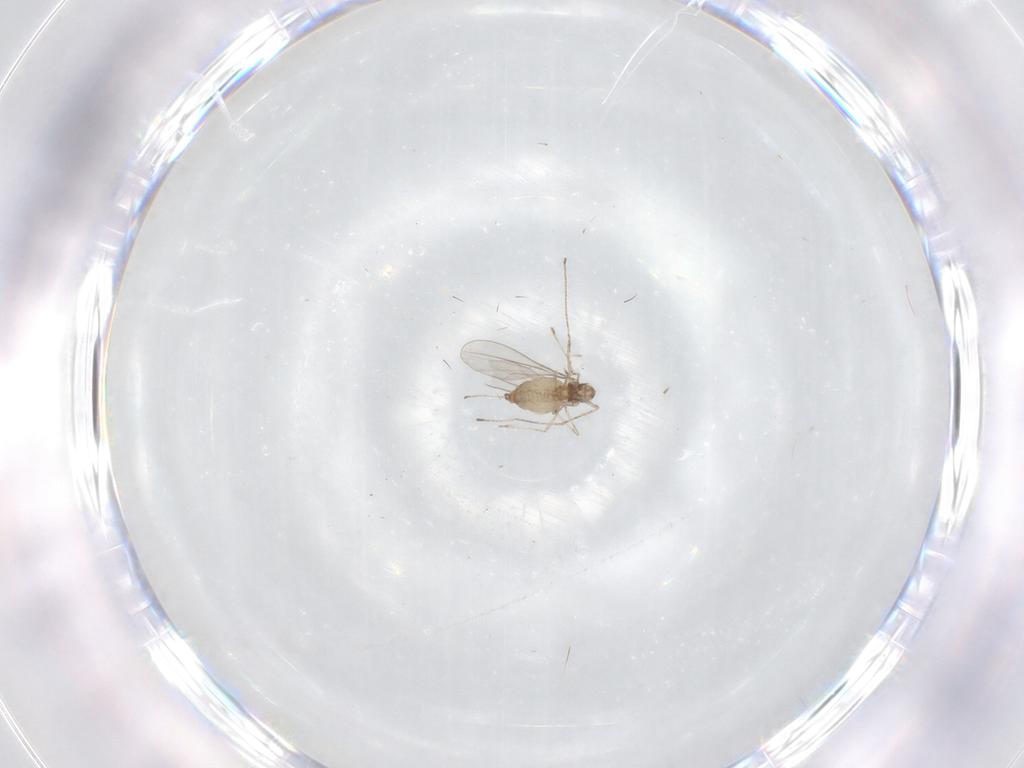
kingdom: Animalia
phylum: Arthropoda
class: Insecta
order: Diptera
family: Cecidomyiidae
